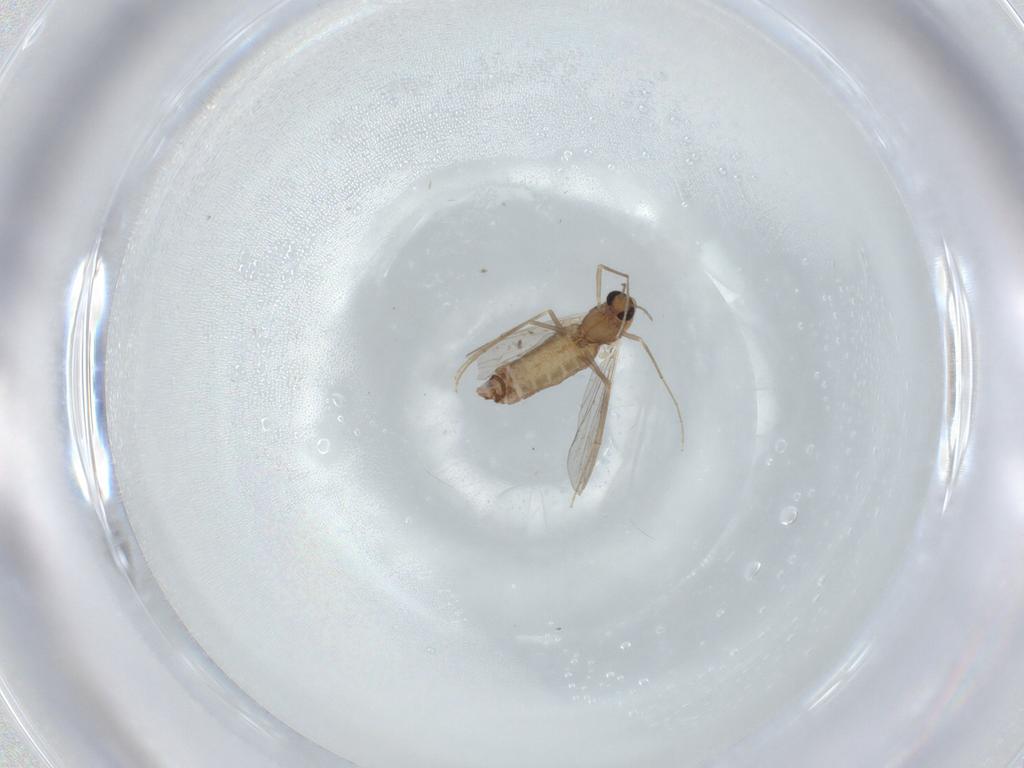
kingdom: Animalia
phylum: Arthropoda
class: Insecta
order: Diptera
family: Chironomidae
